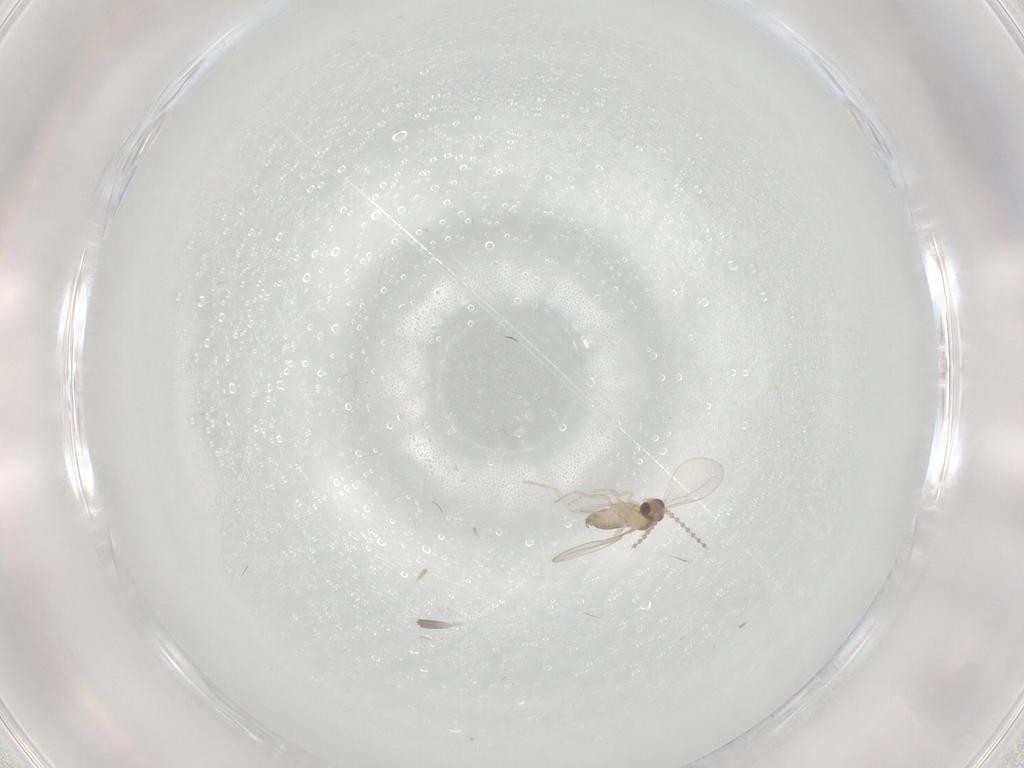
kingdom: Animalia
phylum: Arthropoda
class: Insecta
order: Diptera
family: Cecidomyiidae
